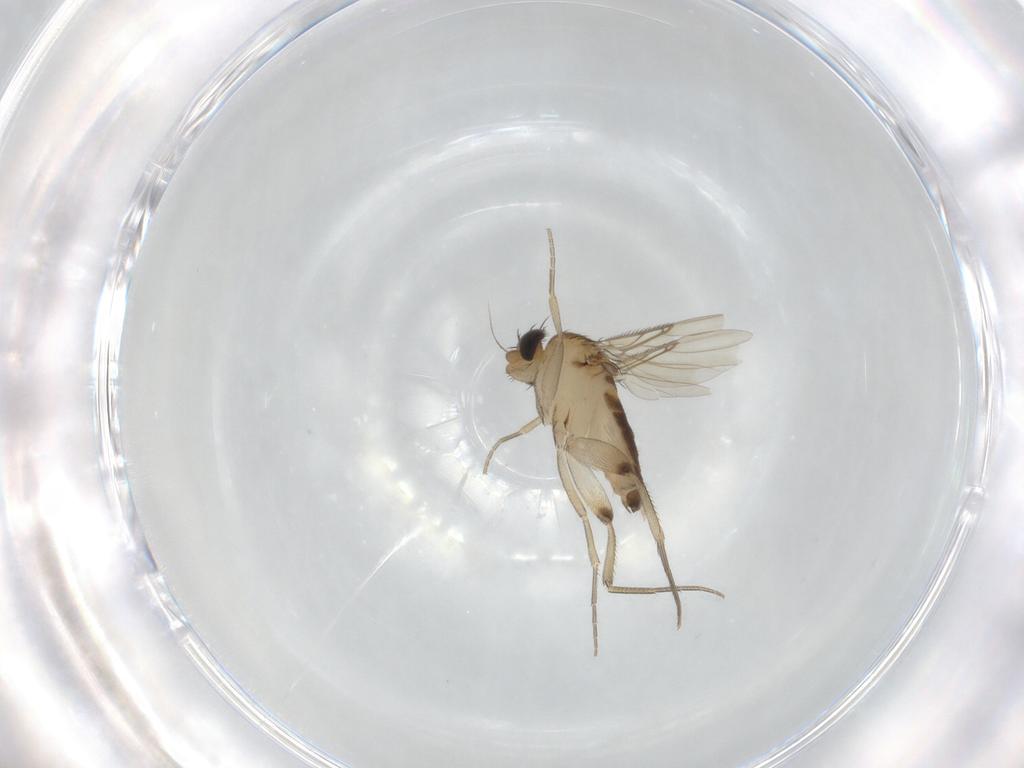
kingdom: Animalia
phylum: Arthropoda
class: Insecta
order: Diptera
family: Phoridae
